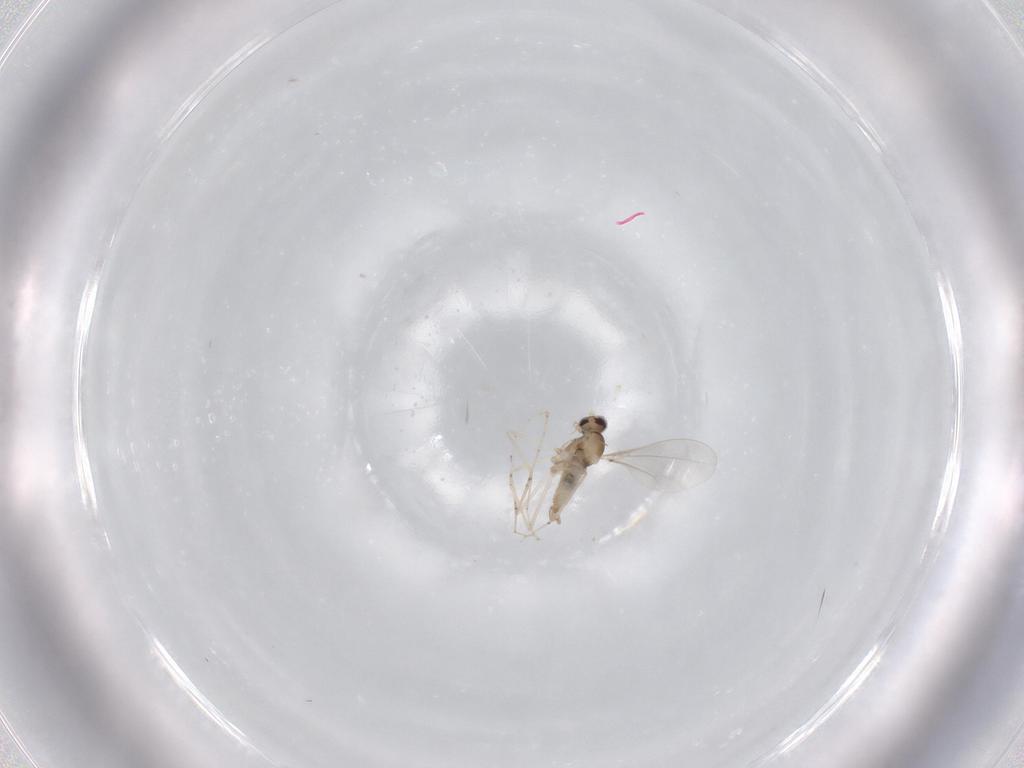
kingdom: Animalia
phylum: Arthropoda
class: Insecta
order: Diptera
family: Cecidomyiidae
